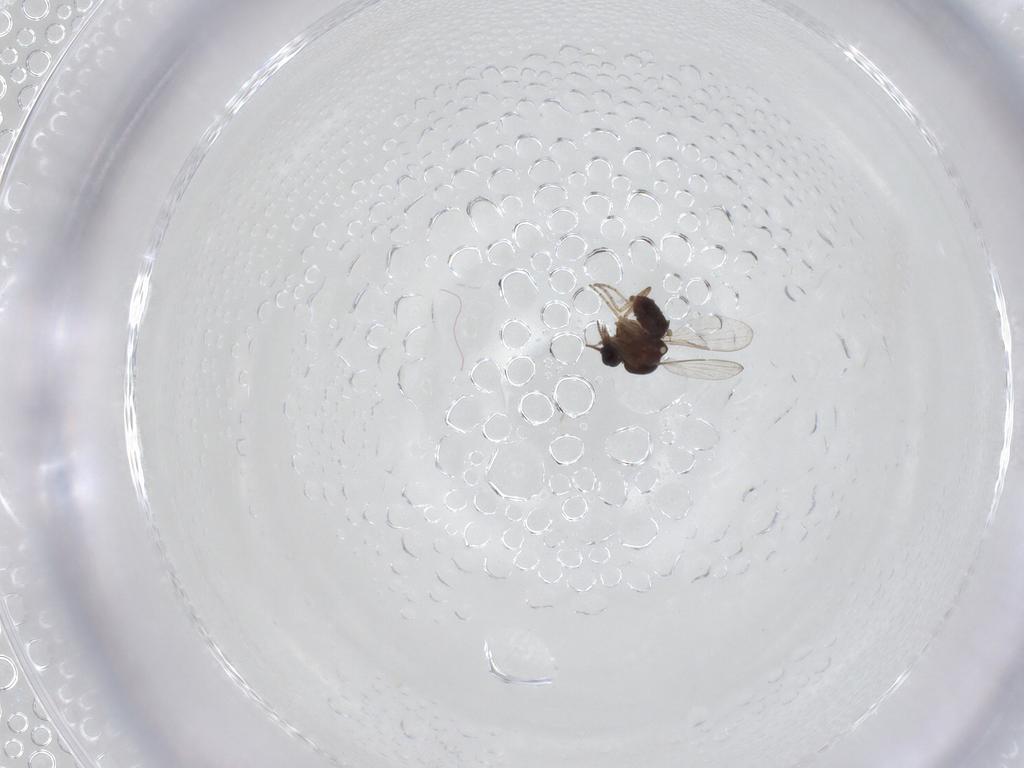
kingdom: Animalia
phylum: Arthropoda
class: Insecta
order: Diptera
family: Ceratopogonidae
